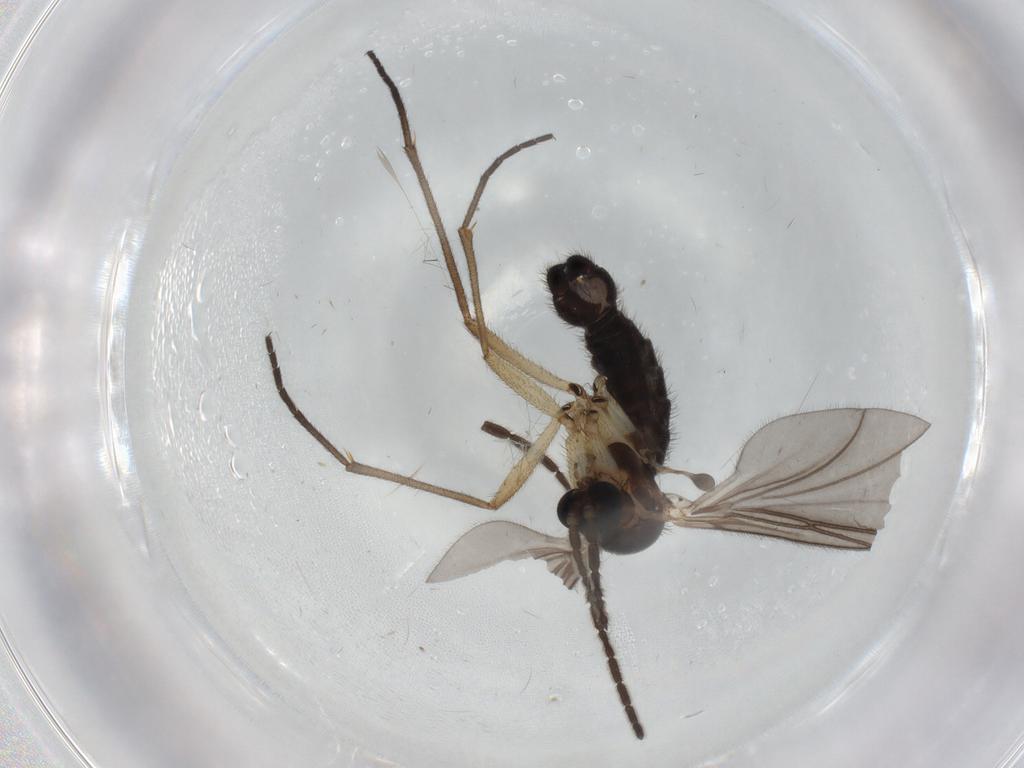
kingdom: Animalia
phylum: Arthropoda
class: Insecta
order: Diptera
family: Sciaridae
